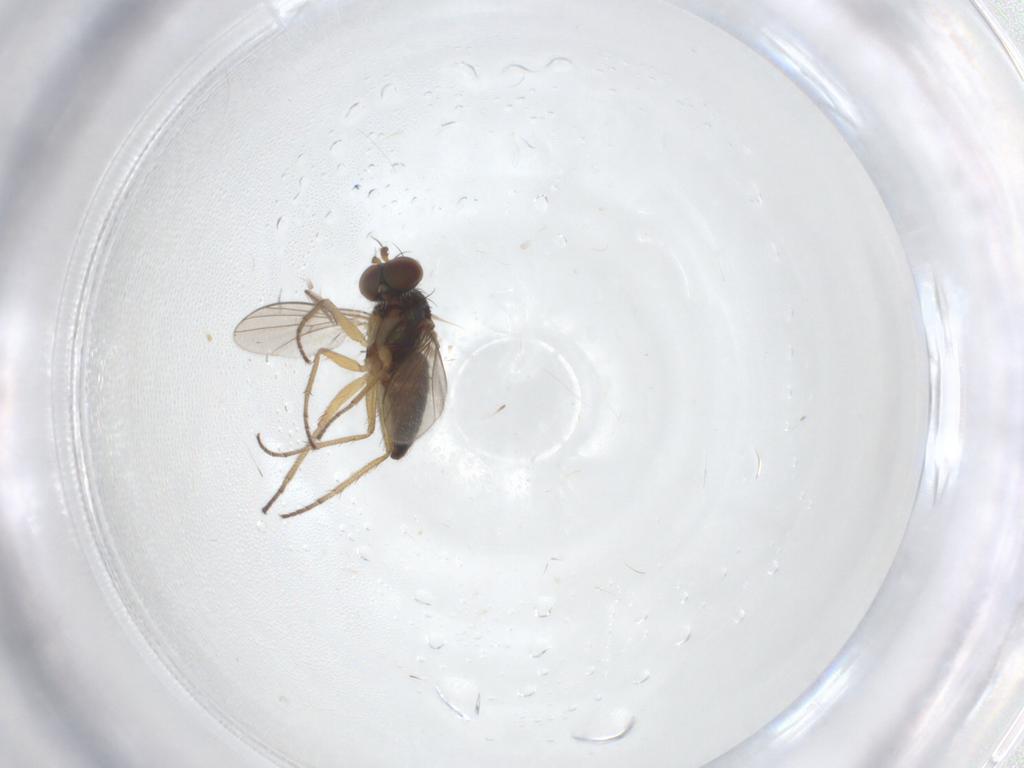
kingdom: Animalia
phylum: Arthropoda
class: Insecta
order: Diptera
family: Dolichopodidae
